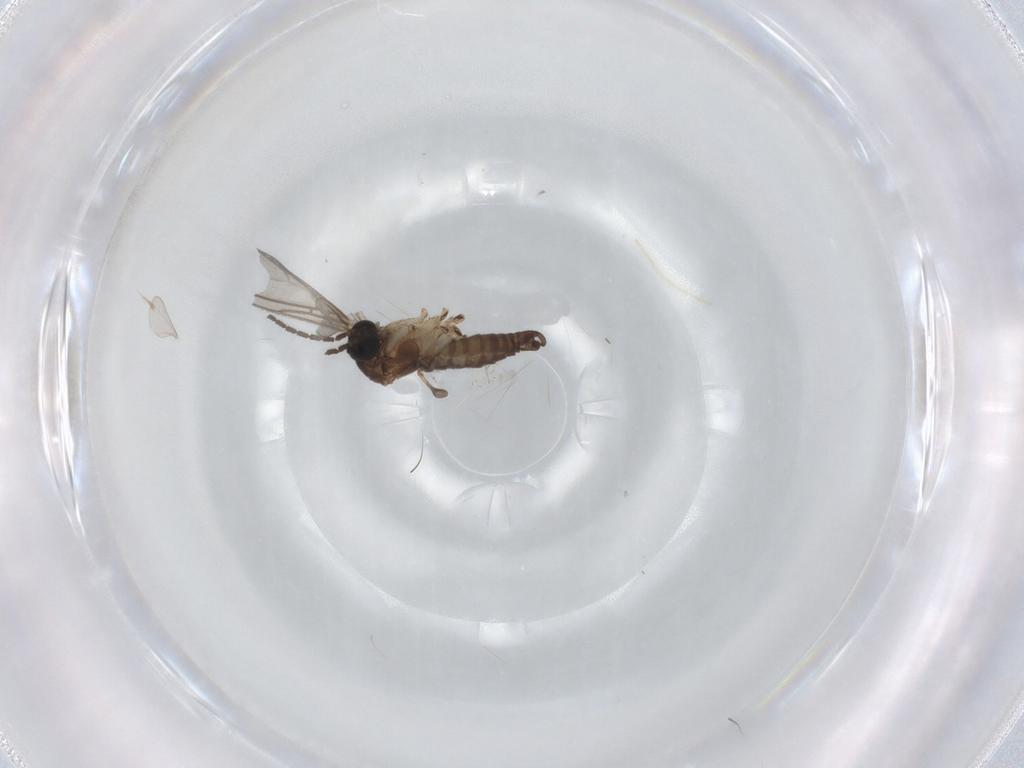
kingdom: Animalia
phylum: Arthropoda
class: Insecta
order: Diptera
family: Sciaridae
